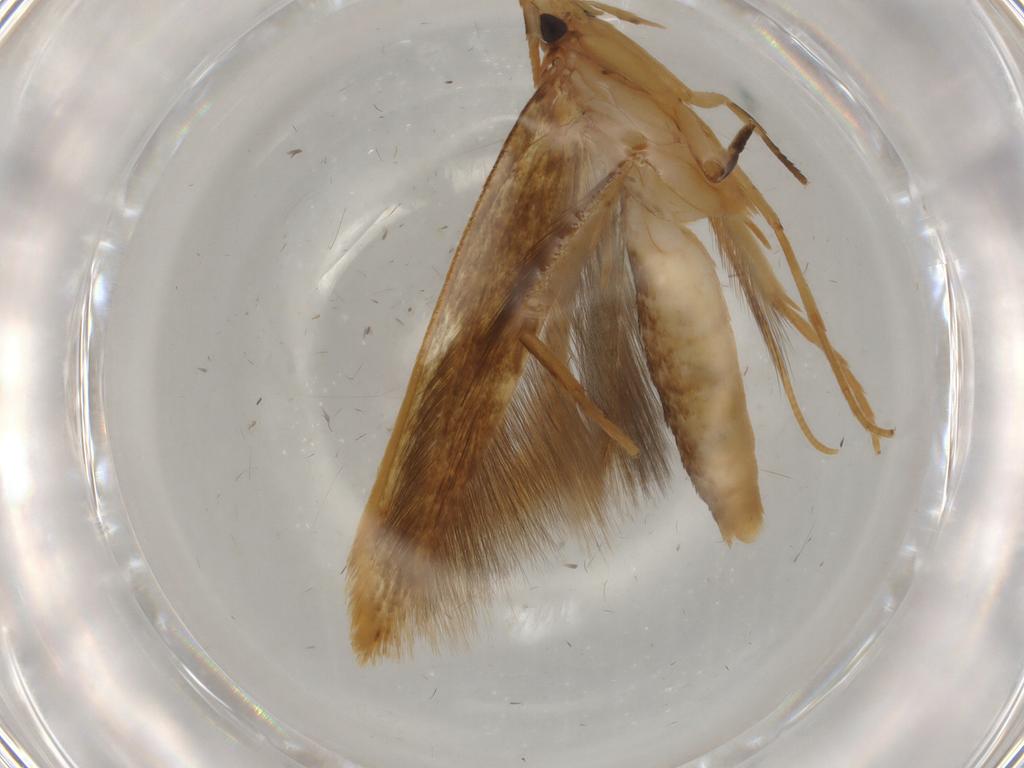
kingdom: Animalia
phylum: Arthropoda
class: Insecta
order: Lepidoptera
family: Tineidae
